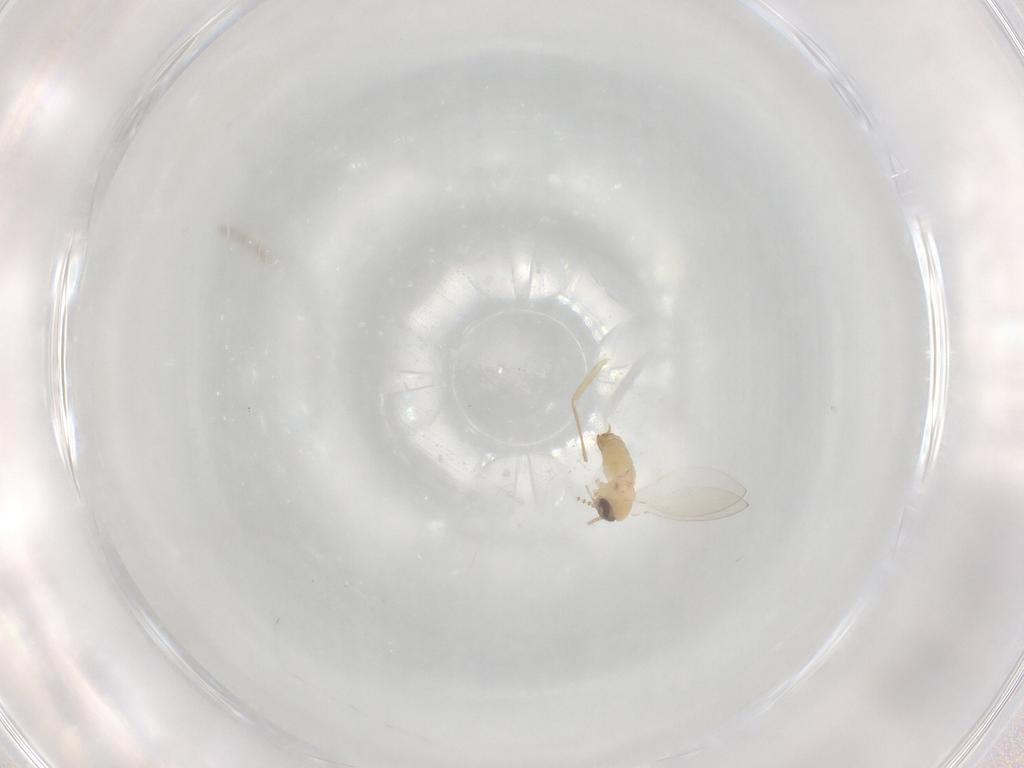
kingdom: Animalia
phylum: Arthropoda
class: Insecta
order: Diptera
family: Psychodidae
